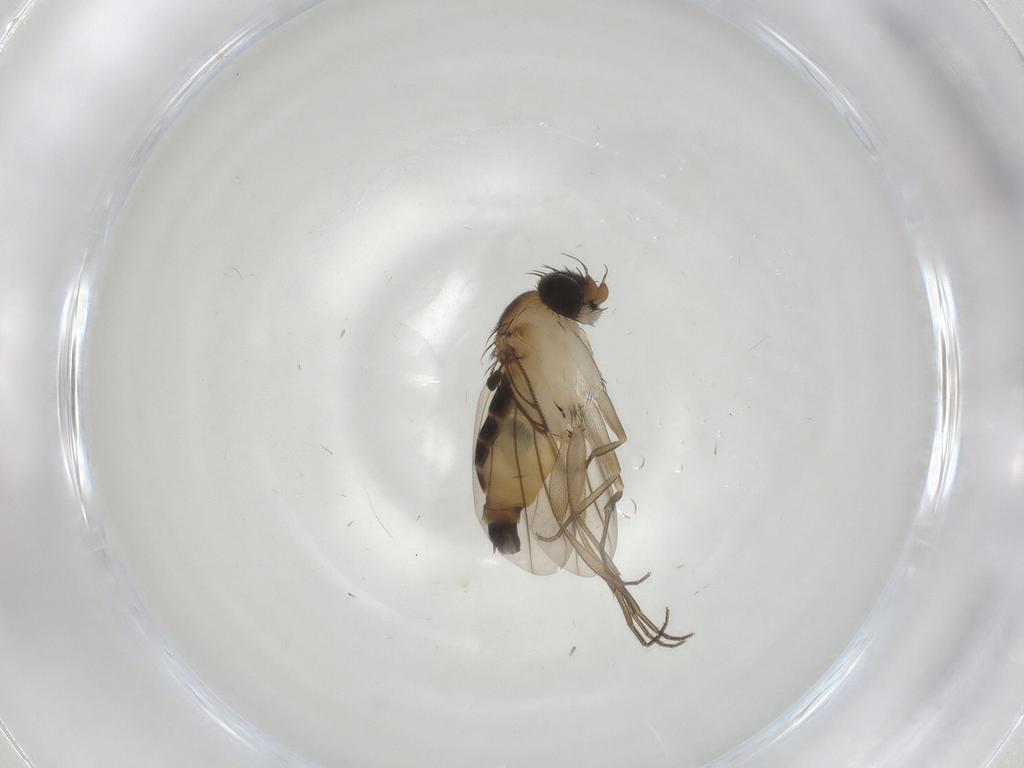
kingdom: Animalia
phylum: Arthropoda
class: Insecta
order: Diptera
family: Phoridae
